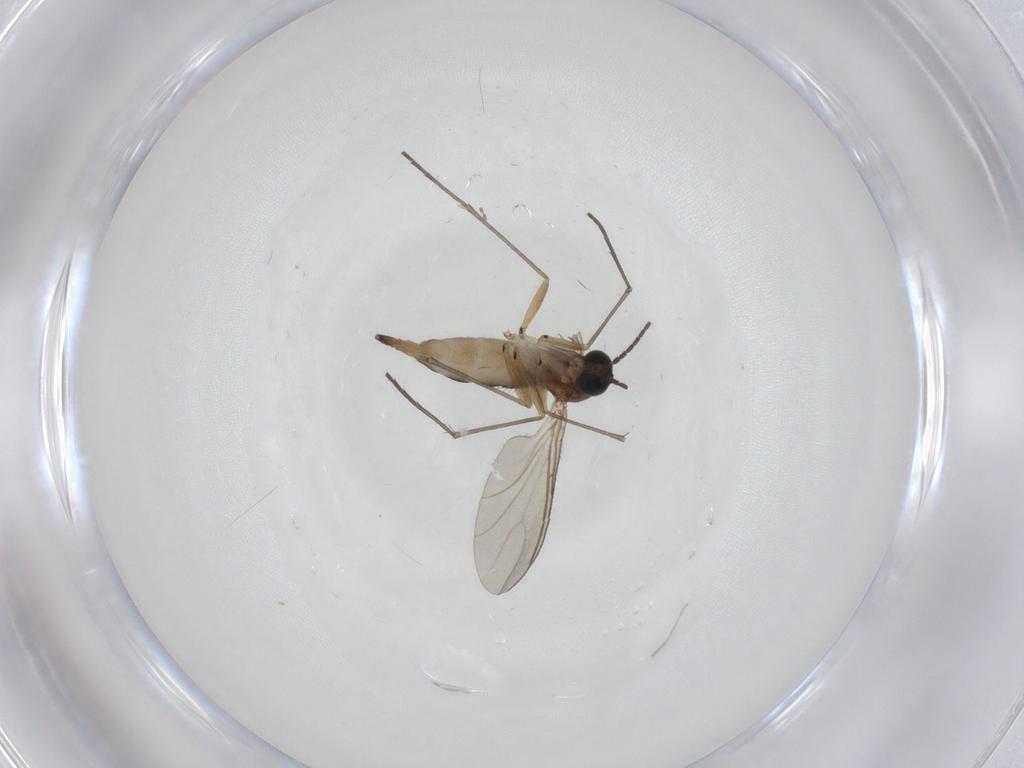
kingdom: Animalia
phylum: Arthropoda
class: Insecta
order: Diptera
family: Sciaridae
